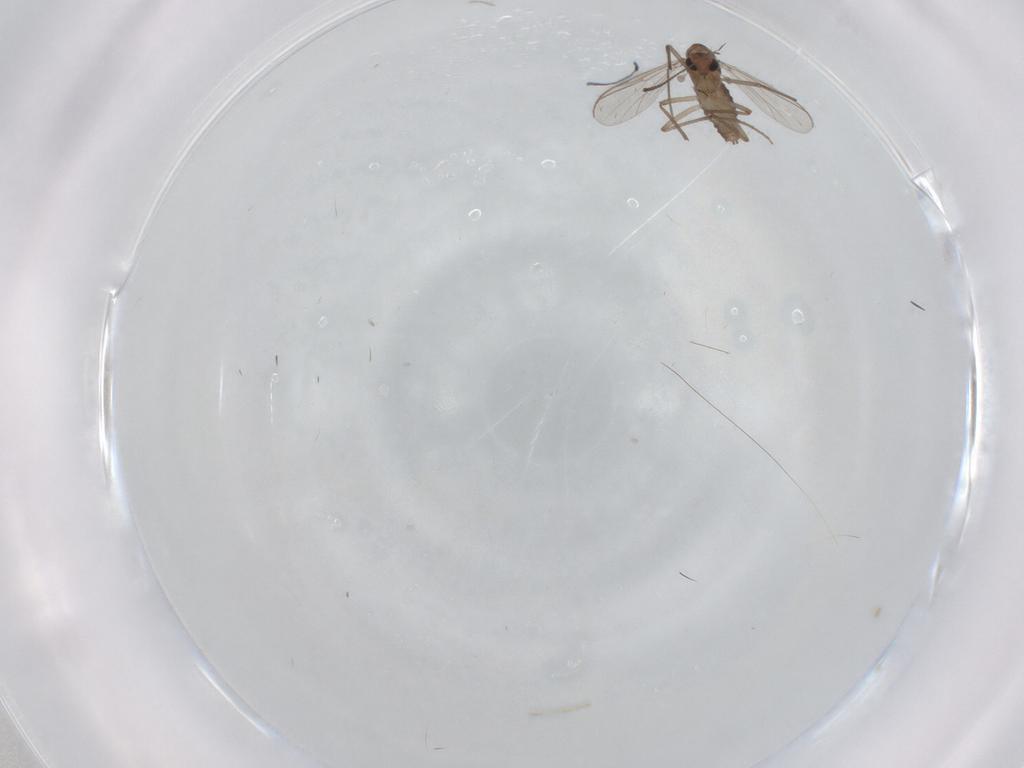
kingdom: Animalia
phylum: Arthropoda
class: Insecta
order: Diptera
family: Chironomidae
